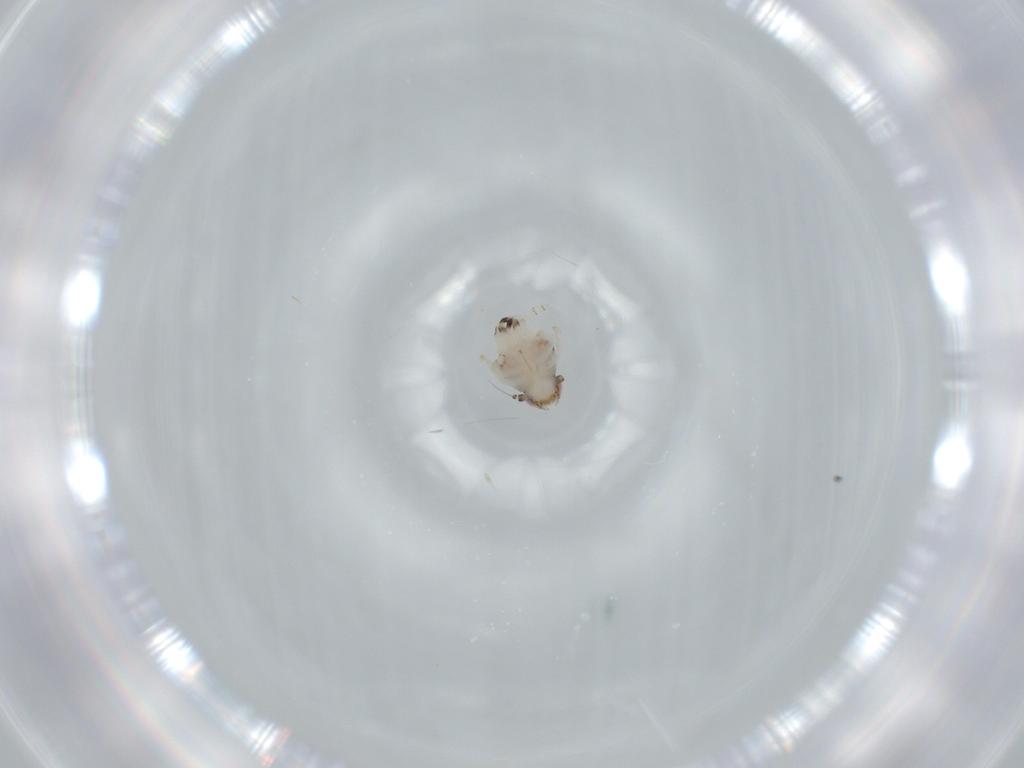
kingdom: Animalia
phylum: Arthropoda
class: Insecta
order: Hemiptera
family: Nogodinidae
